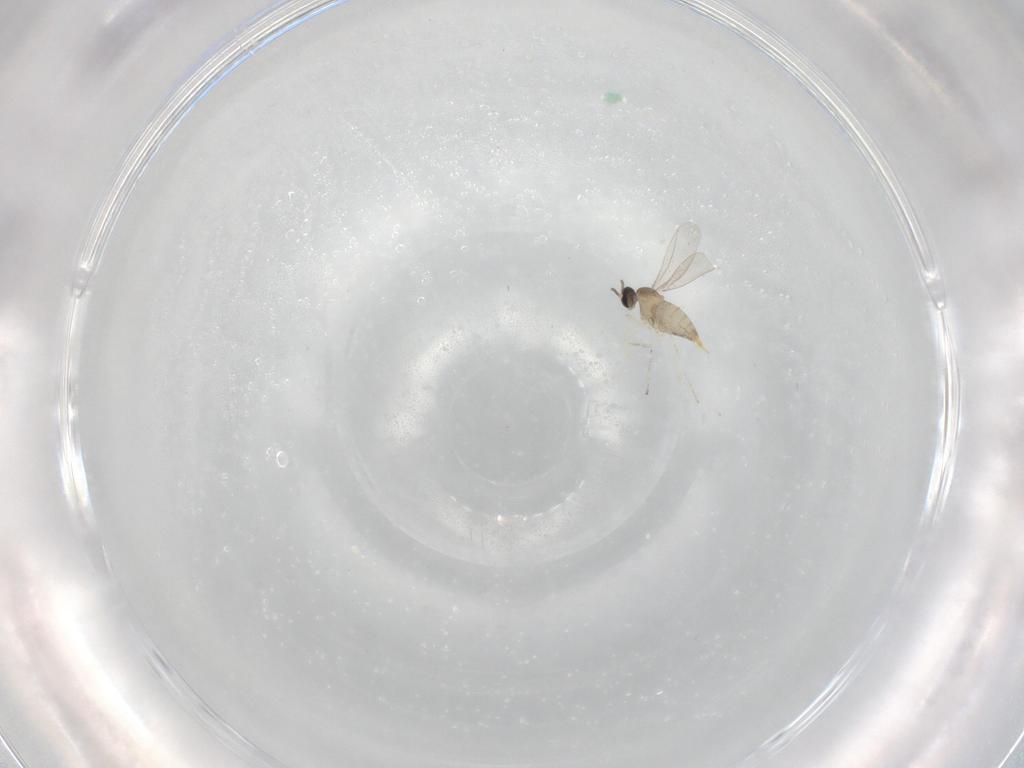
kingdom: Animalia
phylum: Arthropoda
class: Insecta
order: Diptera
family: Cecidomyiidae
